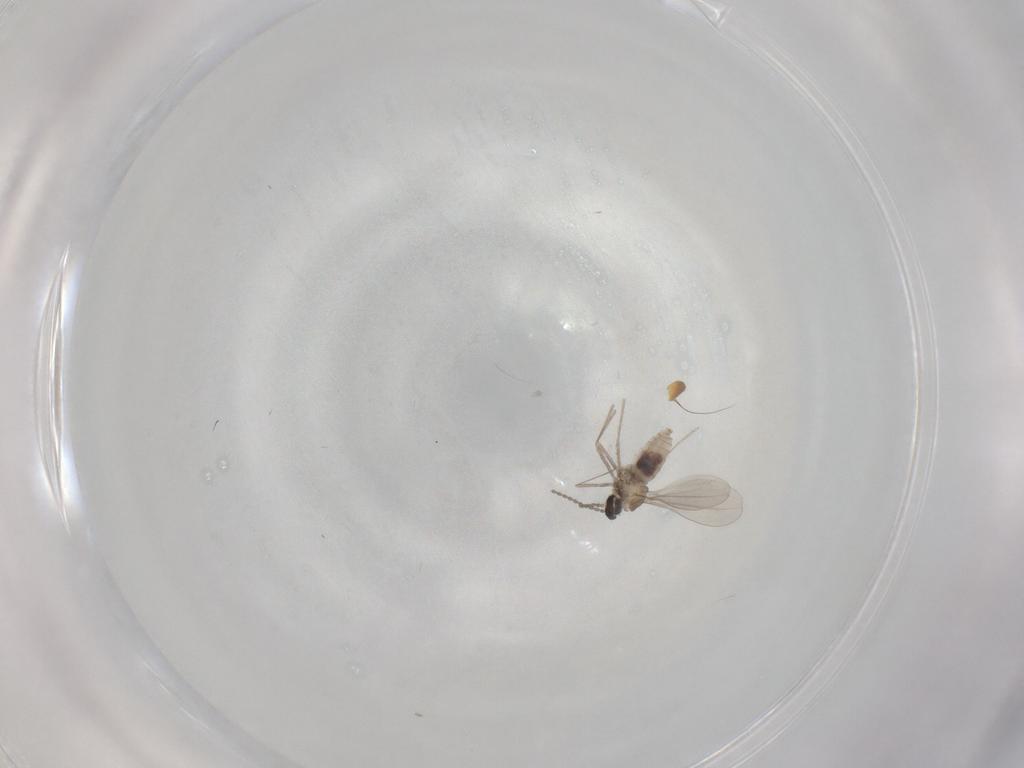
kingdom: Animalia
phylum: Arthropoda
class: Insecta
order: Diptera
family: Cecidomyiidae
